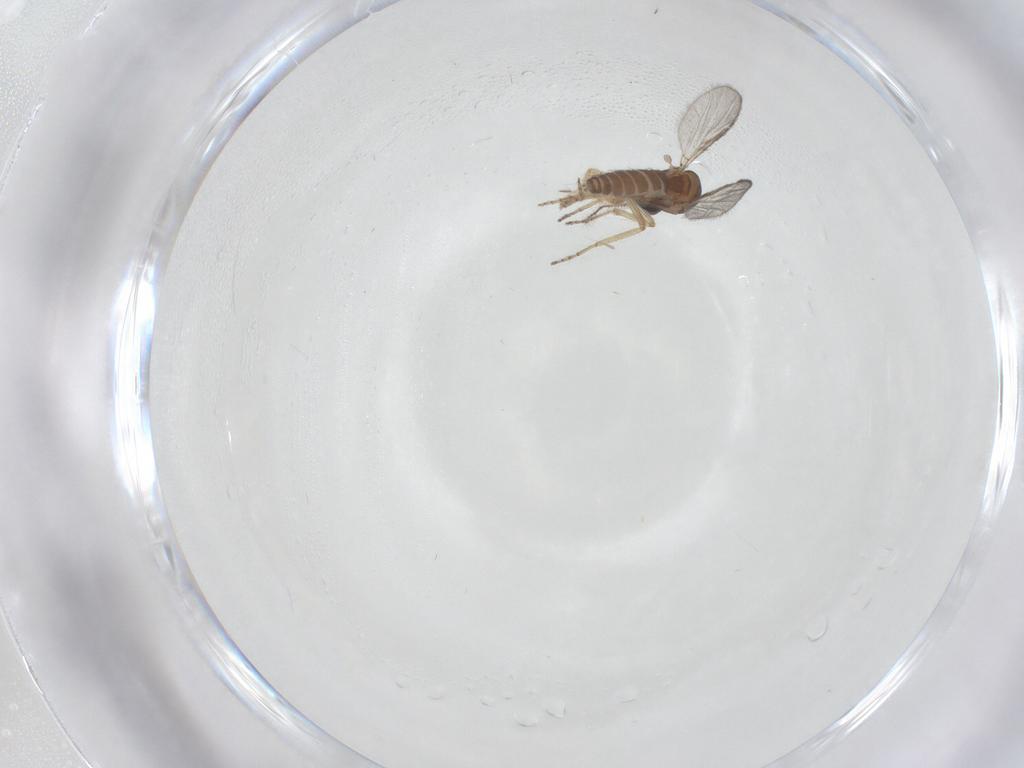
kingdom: Animalia
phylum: Arthropoda
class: Insecta
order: Diptera
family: Ceratopogonidae
